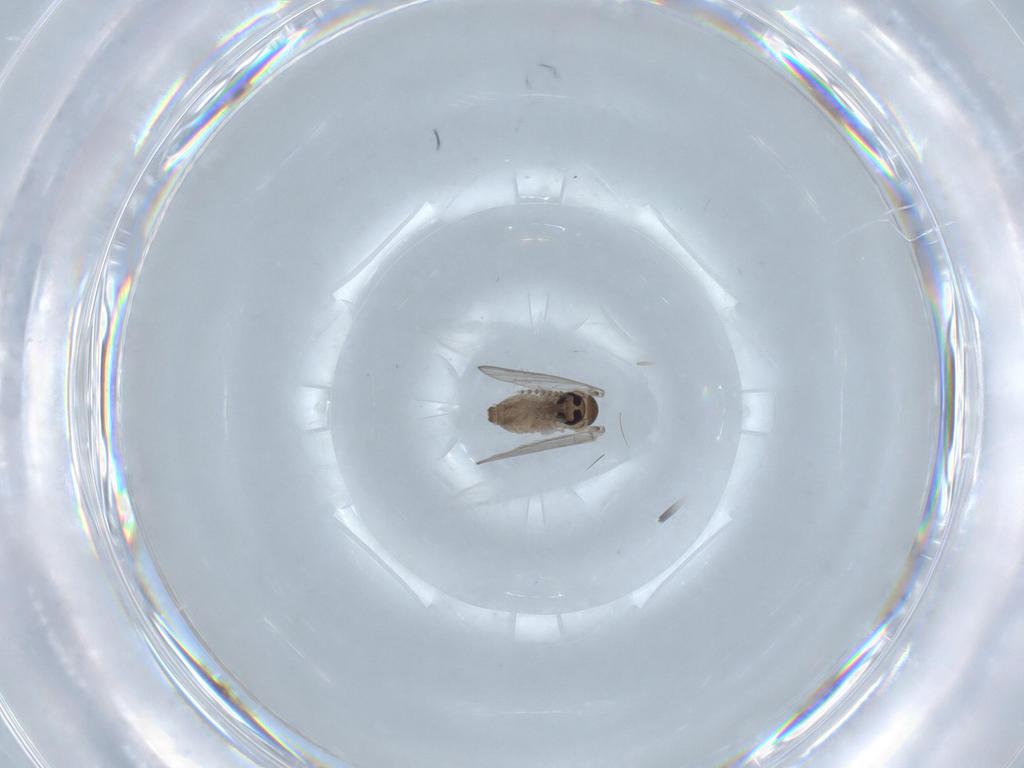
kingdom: Animalia
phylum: Arthropoda
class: Insecta
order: Diptera
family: Psychodidae
